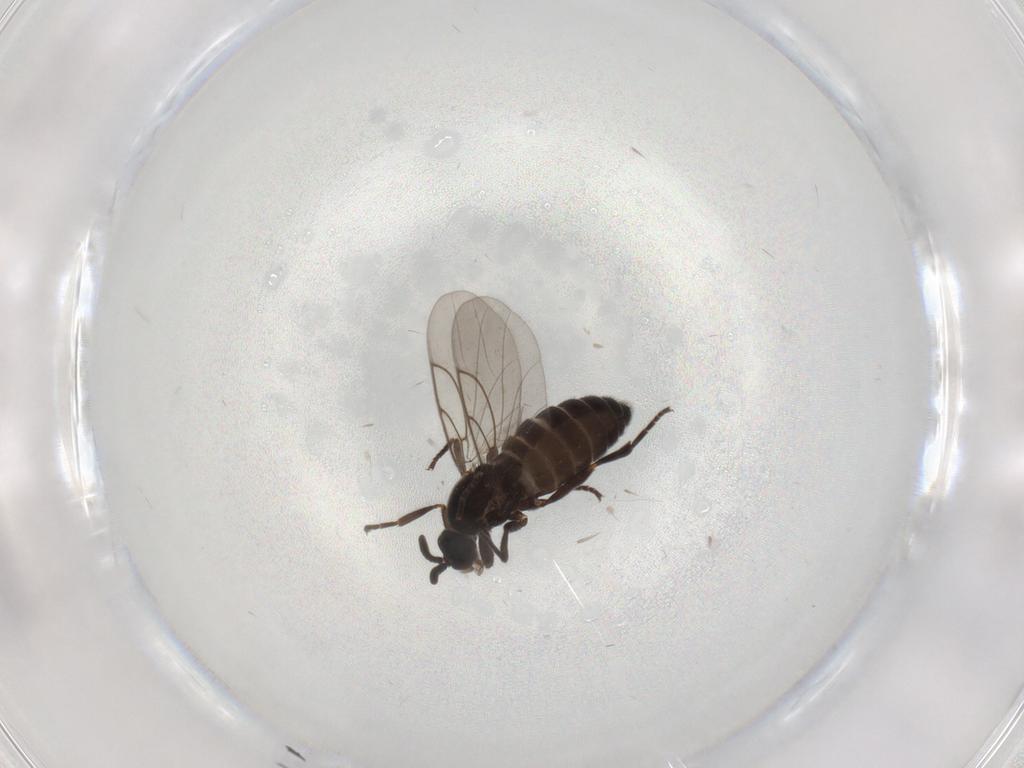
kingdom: Animalia
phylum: Arthropoda
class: Insecta
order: Diptera
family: Scatopsidae
